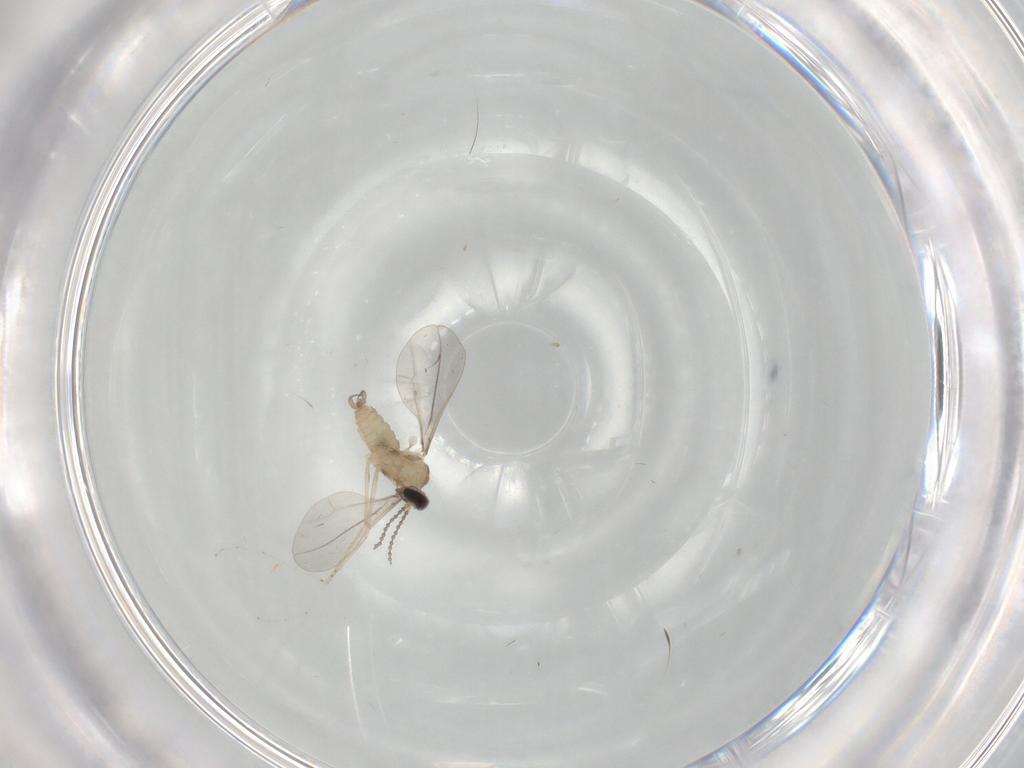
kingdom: Animalia
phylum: Arthropoda
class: Insecta
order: Diptera
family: Cecidomyiidae
